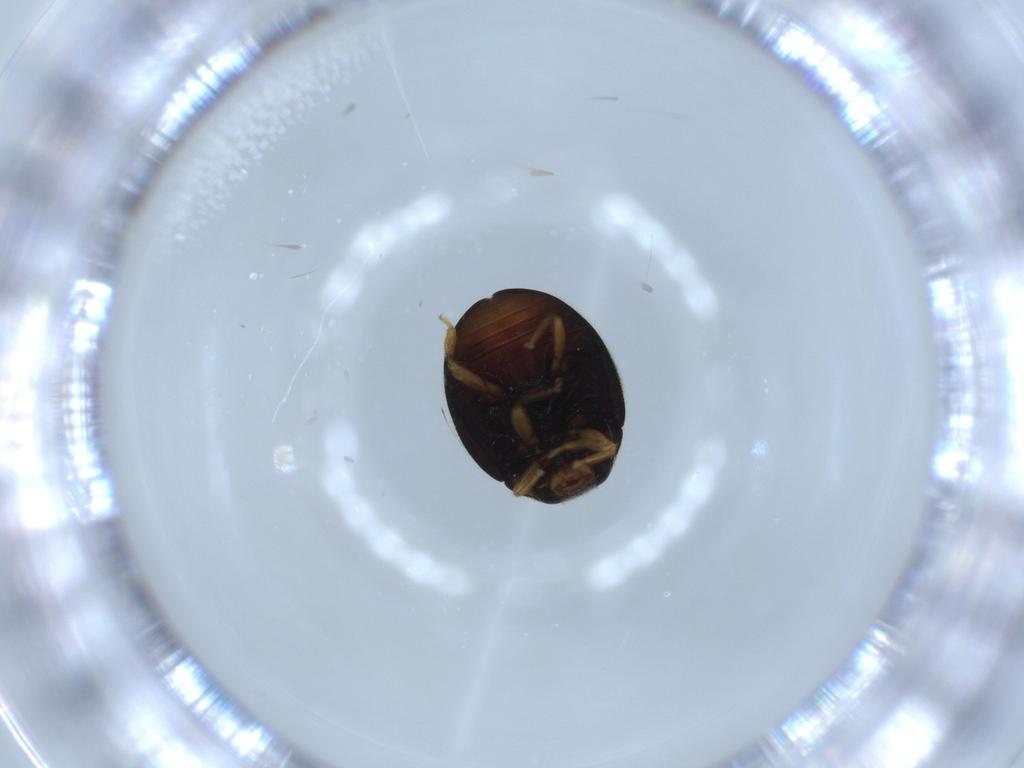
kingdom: Animalia
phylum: Arthropoda
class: Insecta
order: Coleoptera
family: Coccinellidae
